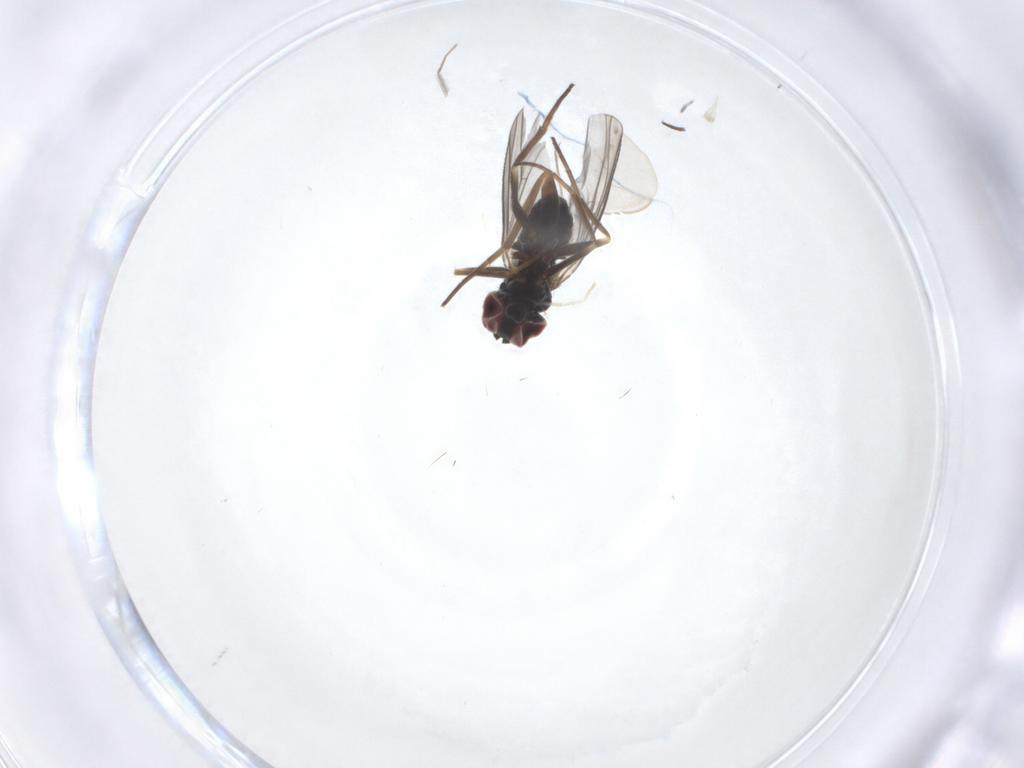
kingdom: Animalia
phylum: Arthropoda
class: Insecta
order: Diptera
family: Dolichopodidae
